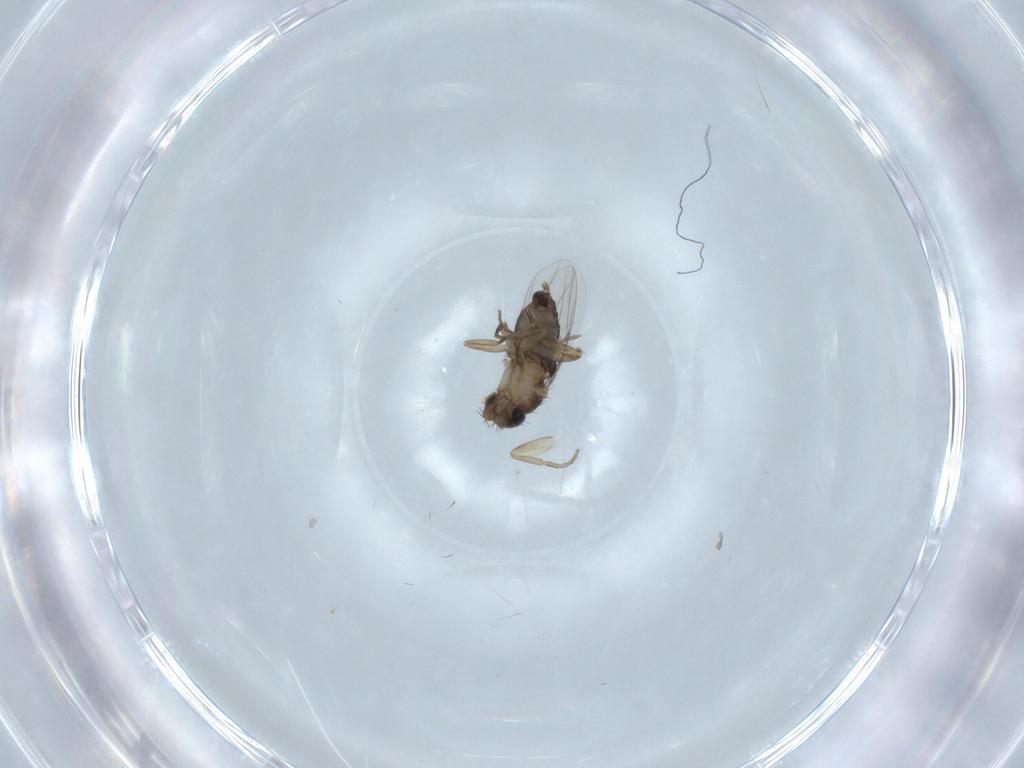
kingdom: Animalia
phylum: Arthropoda
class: Insecta
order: Diptera
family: Phoridae
